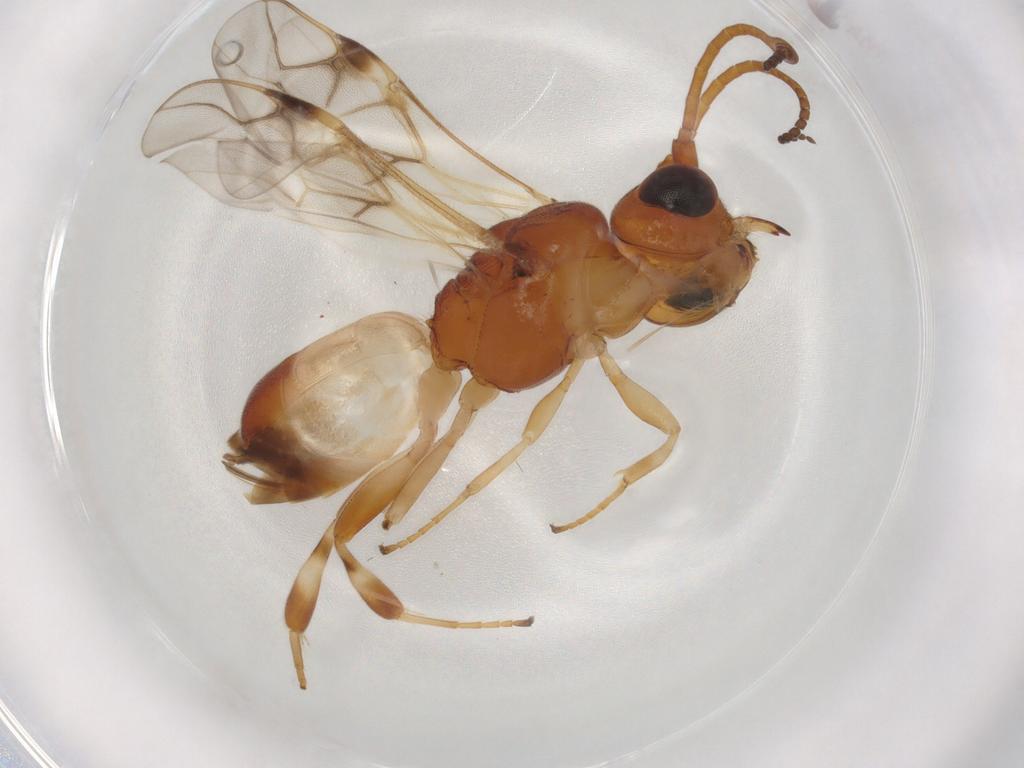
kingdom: Animalia
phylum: Arthropoda
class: Insecta
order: Hymenoptera
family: Braconidae
